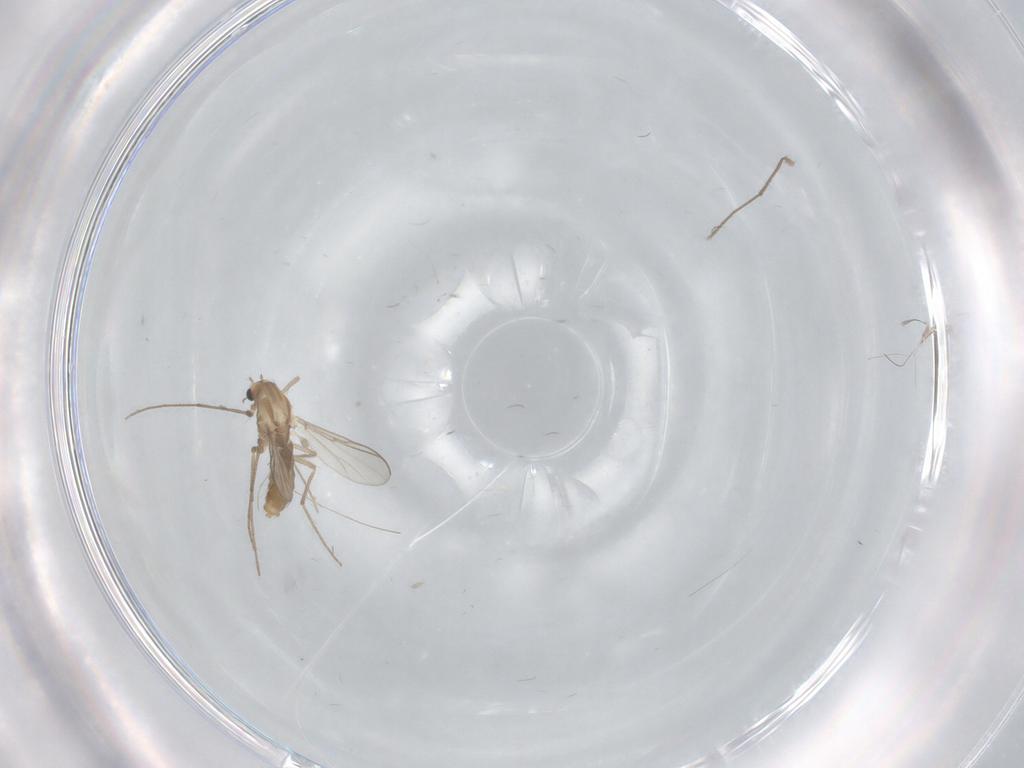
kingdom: Animalia
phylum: Arthropoda
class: Insecta
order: Diptera
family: Chironomidae
